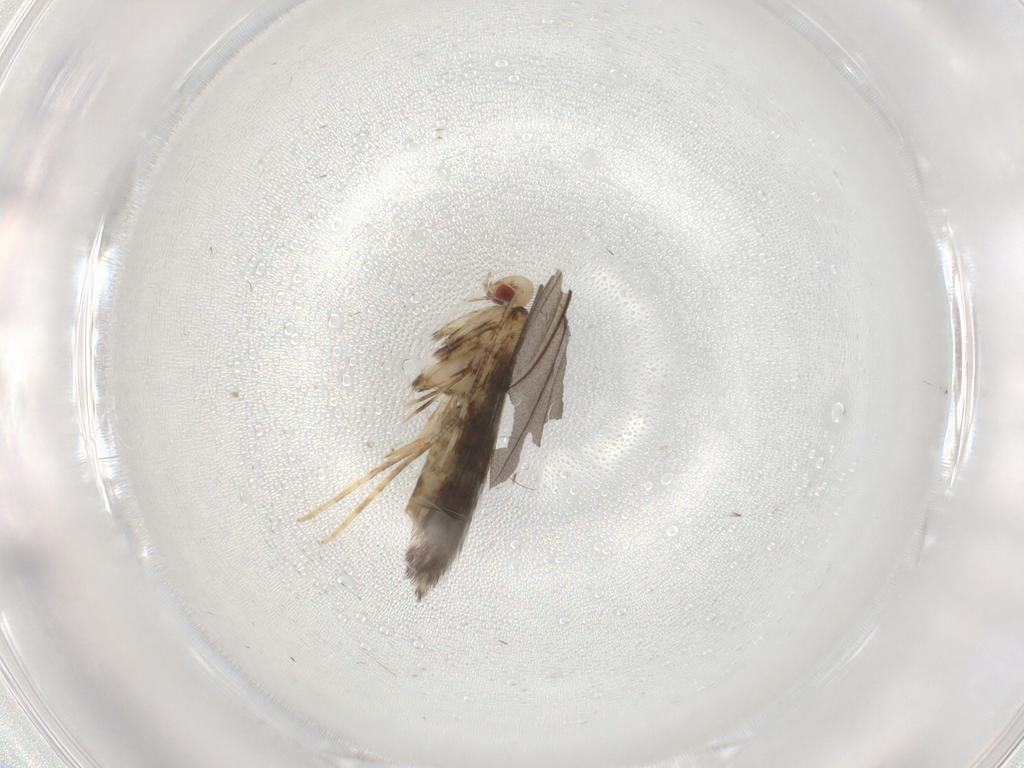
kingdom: Animalia
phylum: Arthropoda
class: Insecta
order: Lepidoptera
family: Gracillariidae
